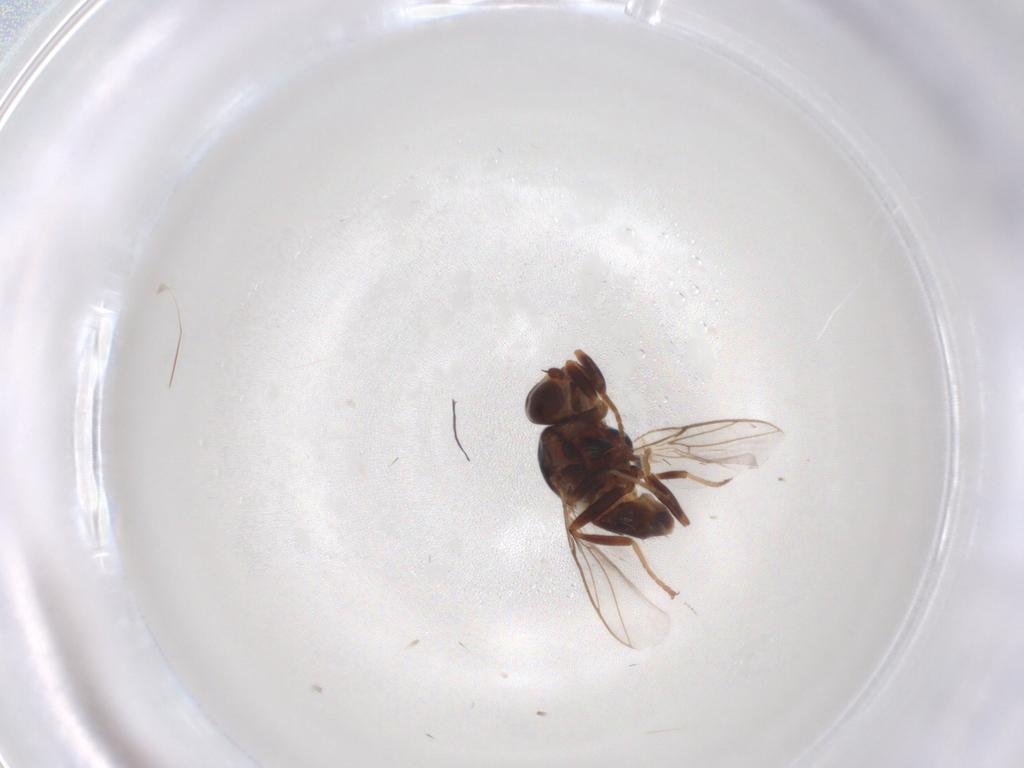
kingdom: Animalia
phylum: Arthropoda
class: Insecta
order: Diptera
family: Chloropidae
